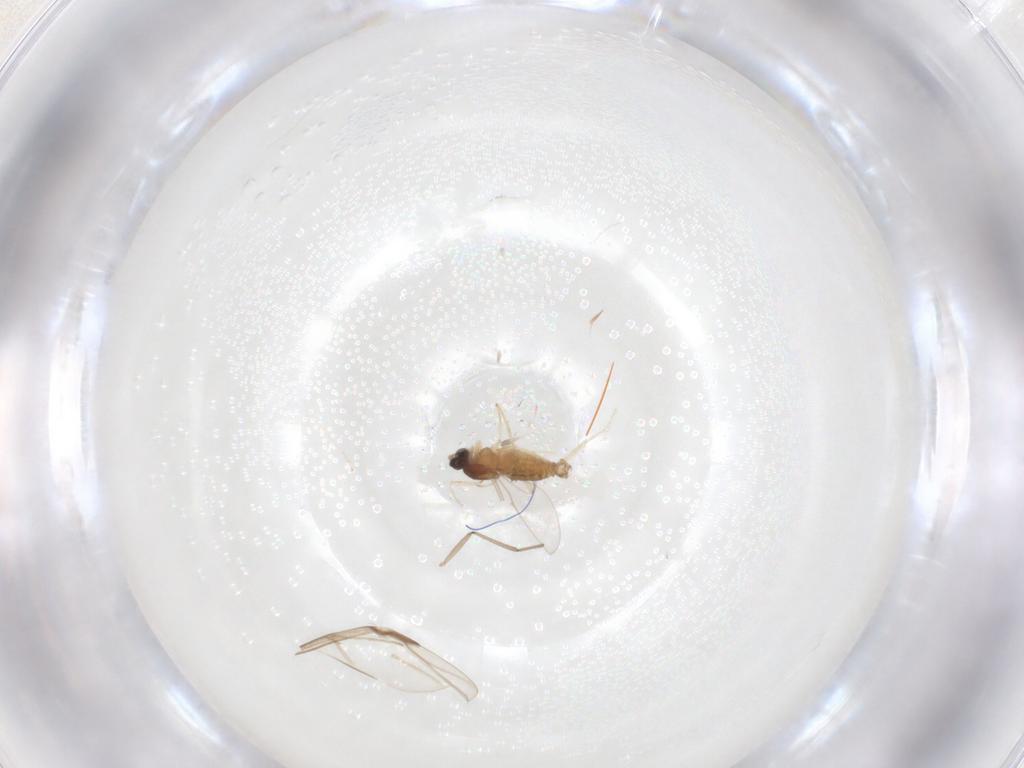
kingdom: Animalia
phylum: Arthropoda
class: Insecta
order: Diptera
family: Cecidomyiidae
